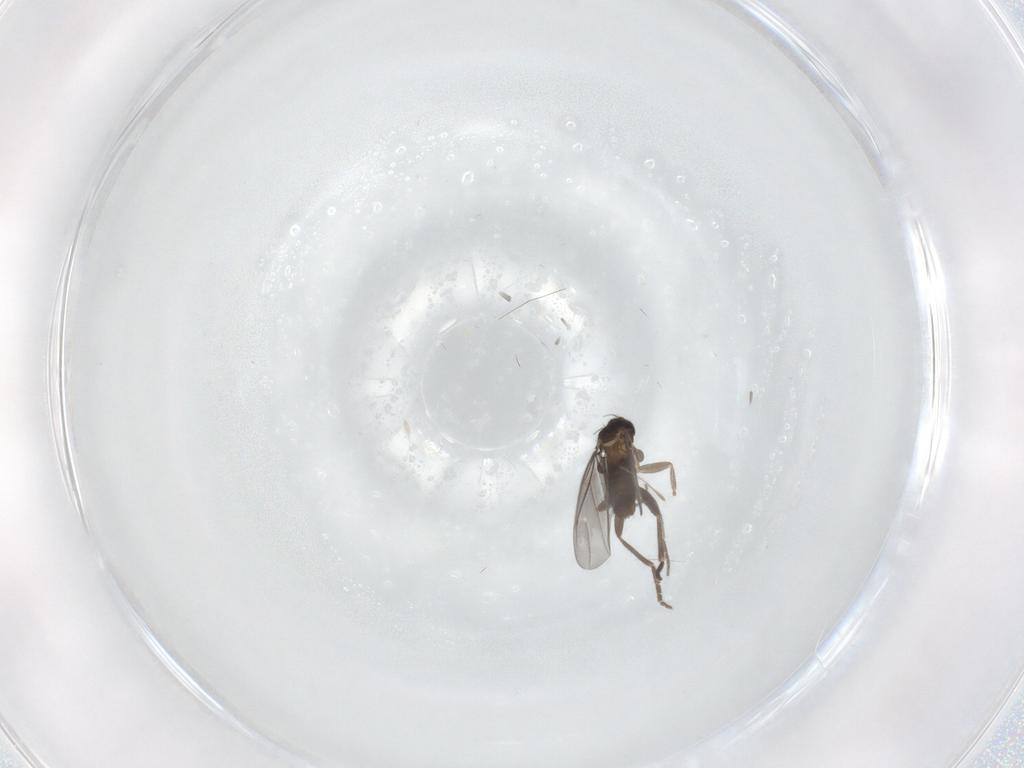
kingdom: Animalia
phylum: Arthropoda
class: Insecta
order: Diptera
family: Phoridae
